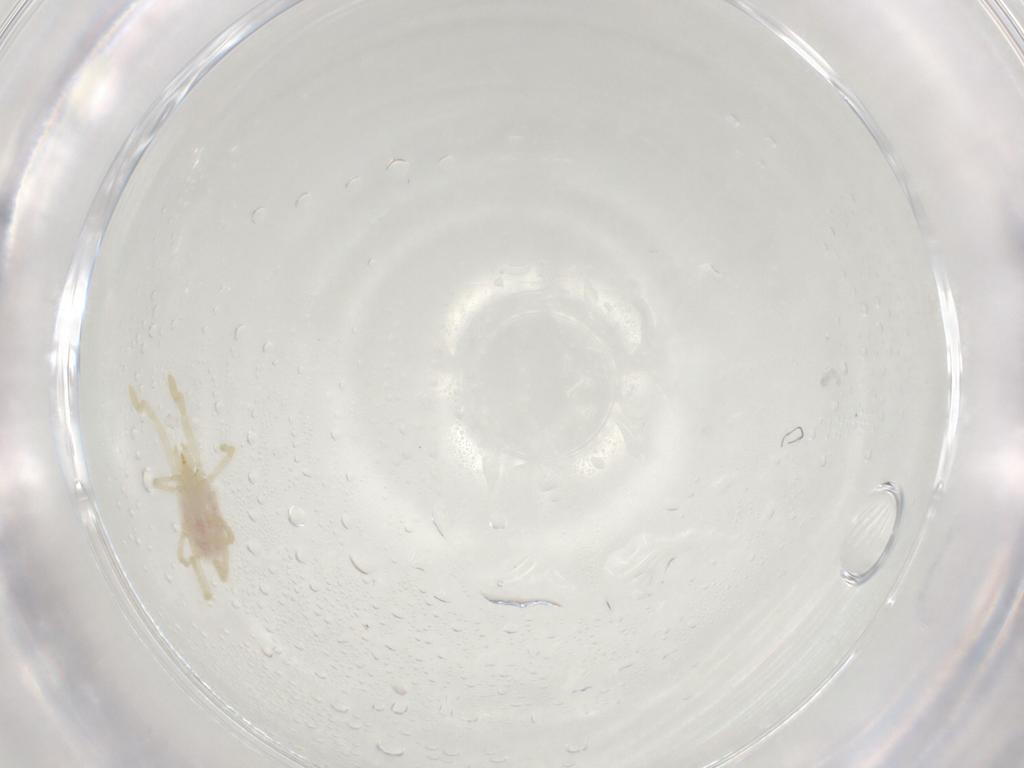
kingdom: Animalia
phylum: Arthropoda
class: Arachnida
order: Trombidiformes
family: Erythraeidae
